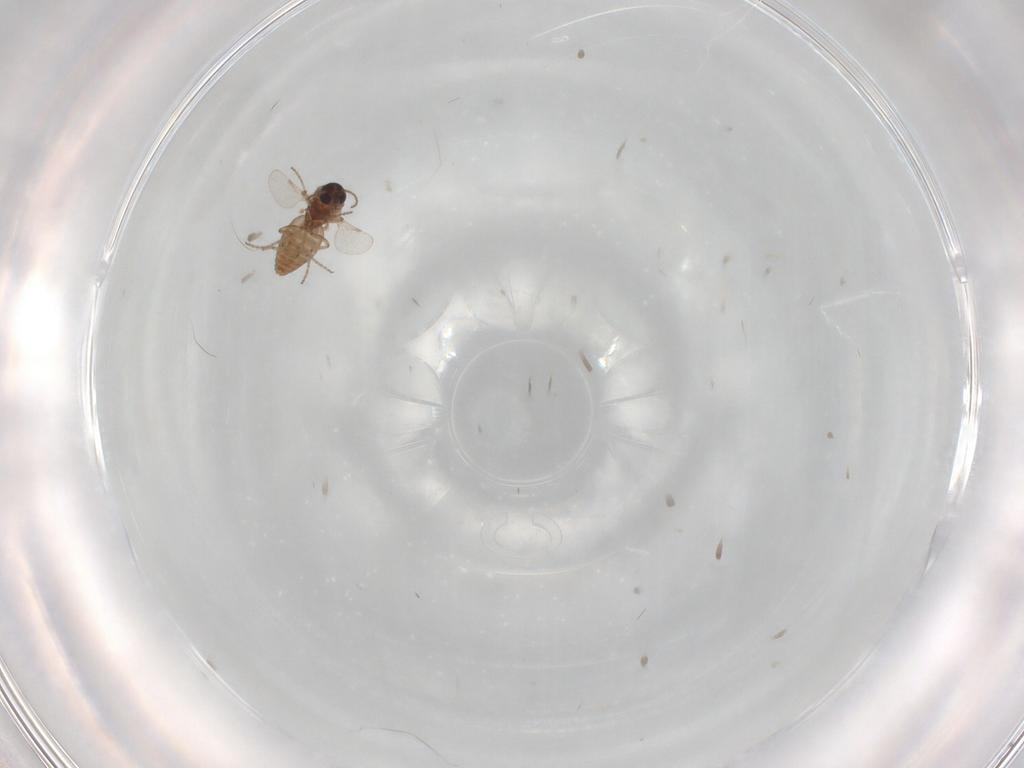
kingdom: Animalia
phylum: Arthropoda
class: Insecta
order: Diptera
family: Ceratopogonidae
